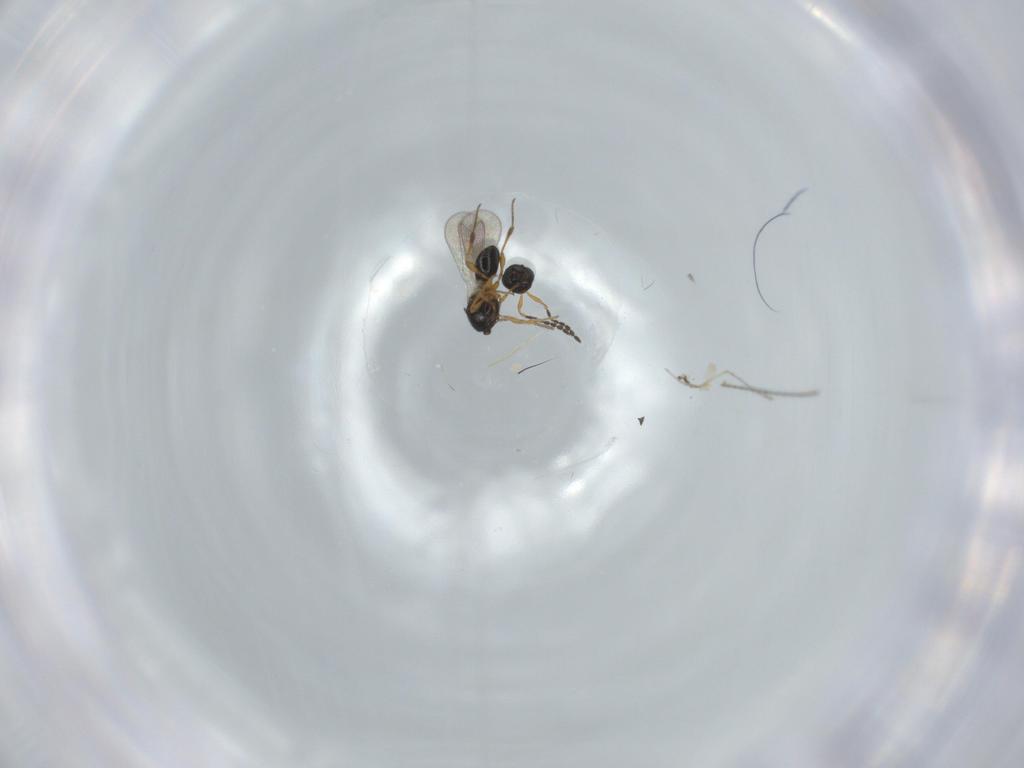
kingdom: Animalia
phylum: Arthropoda
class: Insecta
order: Hymenoptera
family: Platygastridae
